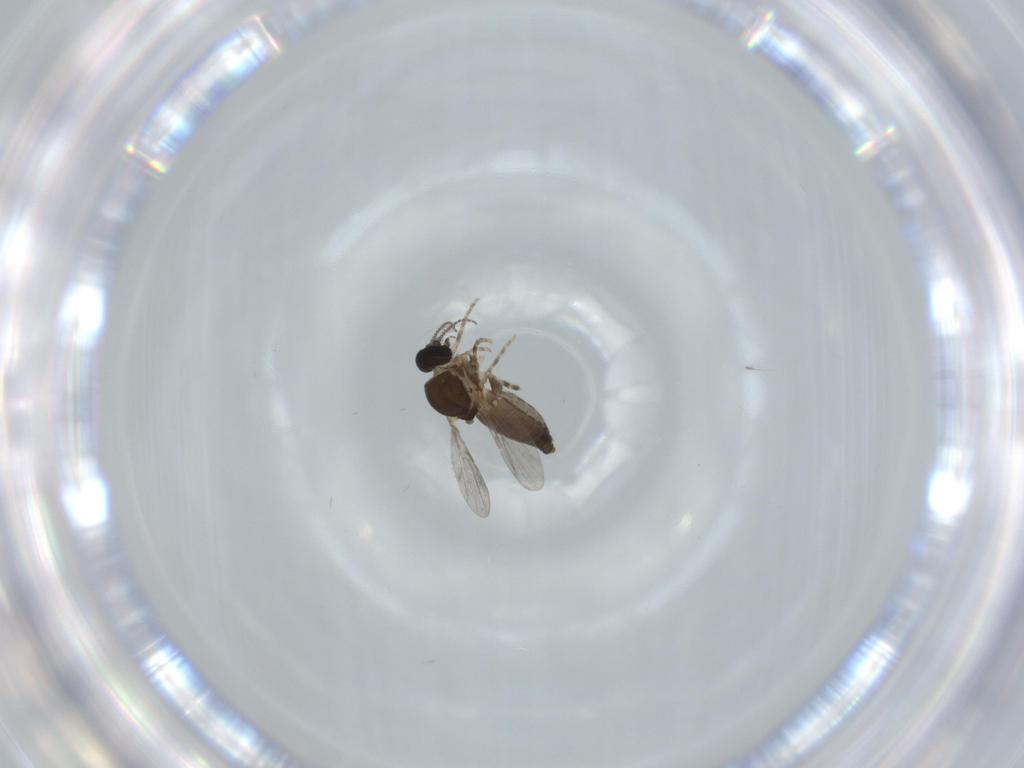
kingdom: Animalia
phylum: Arthropoda
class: Insecta
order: Diptera
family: Ceratopogonidae
